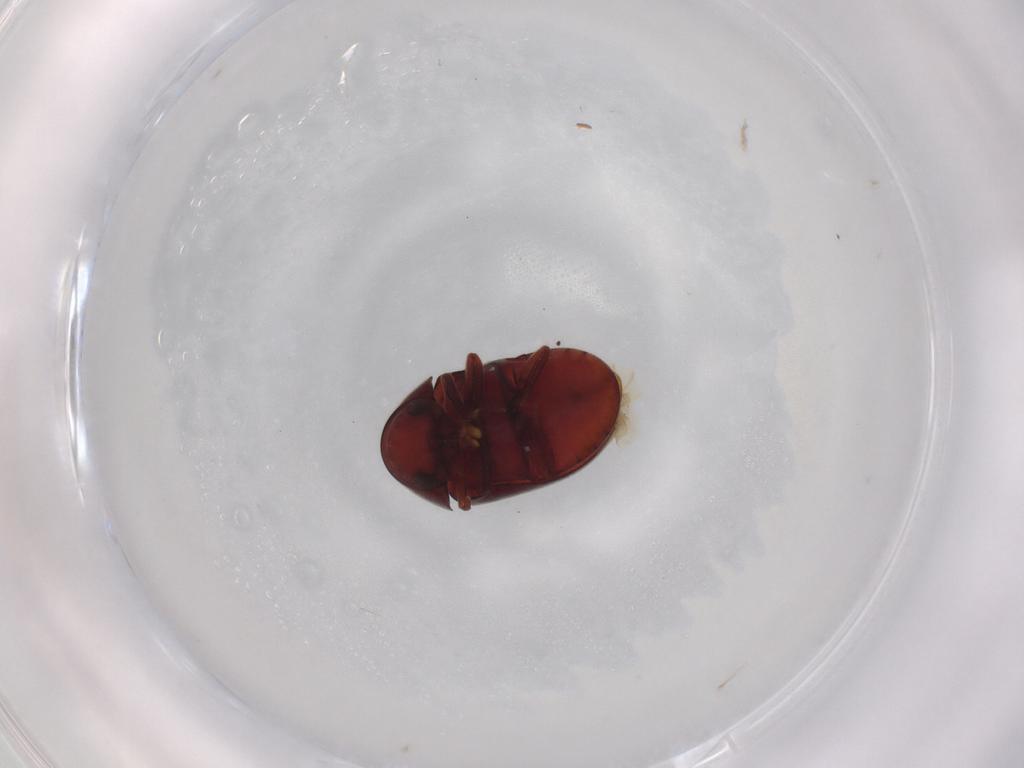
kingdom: Animalia
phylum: Arthropoda
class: Insecta
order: Coleoptera
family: Ptinidae
